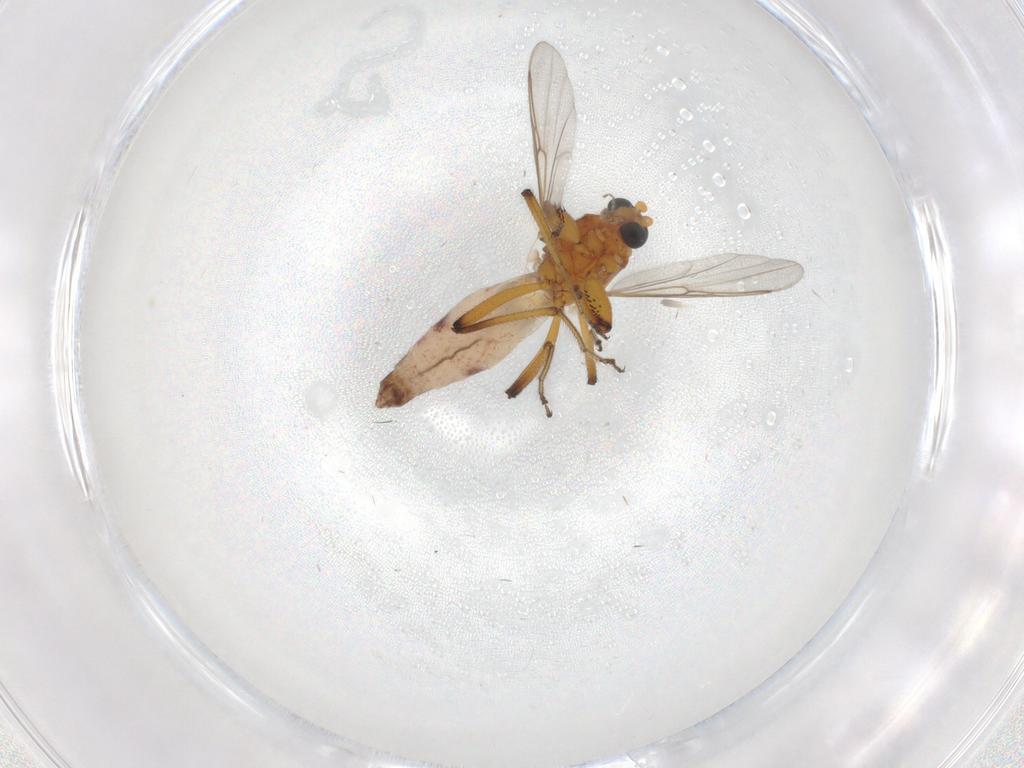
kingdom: Animalia
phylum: Arthropoda
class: Insecta
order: Diptera
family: Ceratopogonidae
